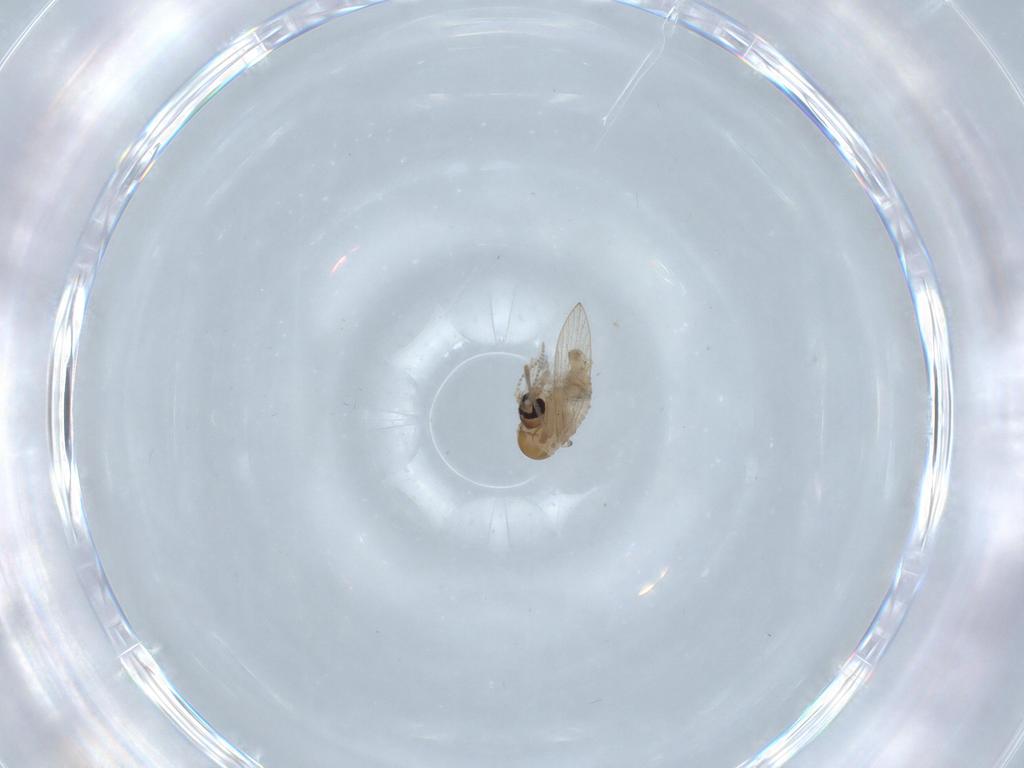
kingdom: Animalia
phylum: Arthropoda
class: Insecta
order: Diptera
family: Psychodidae
